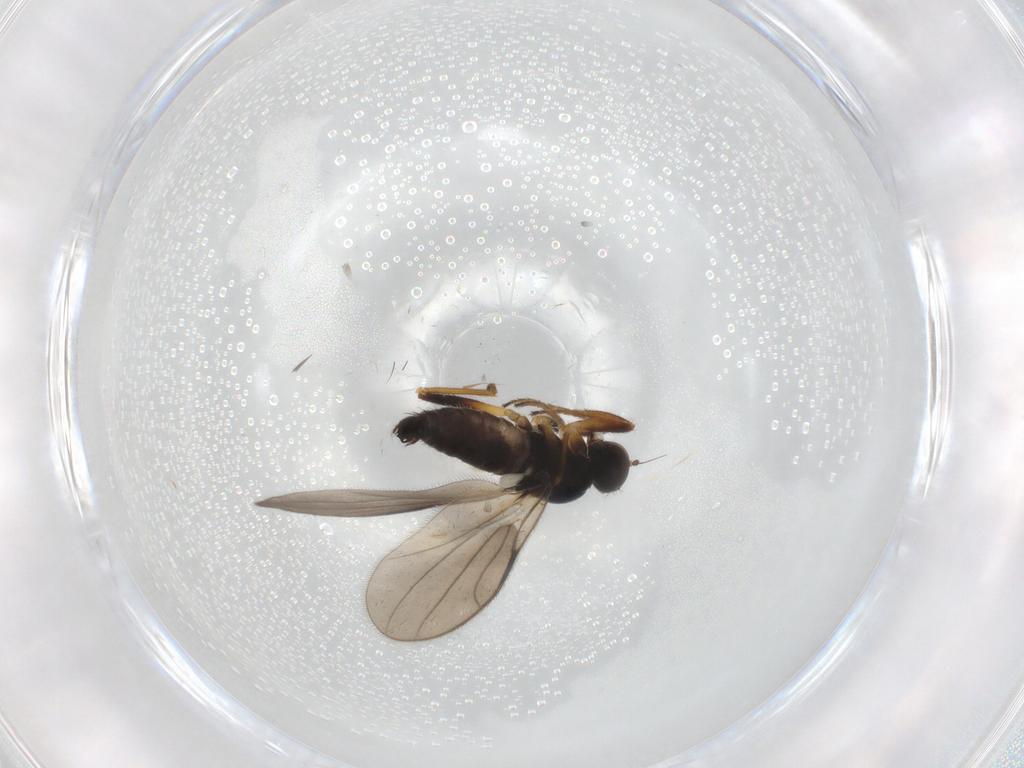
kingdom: Animalia
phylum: Arthropoda
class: Insecta
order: Diptera
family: Hybotidae
